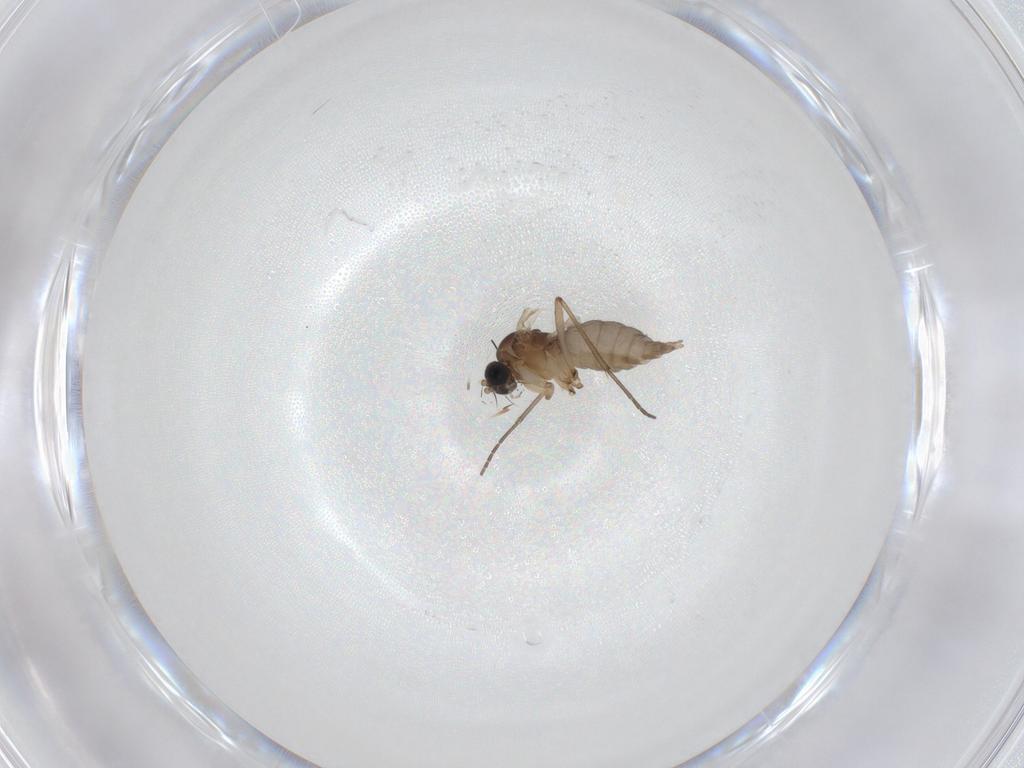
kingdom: Animalia
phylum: Arthropoda
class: Insecta
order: Diptera
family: Sciaridae
